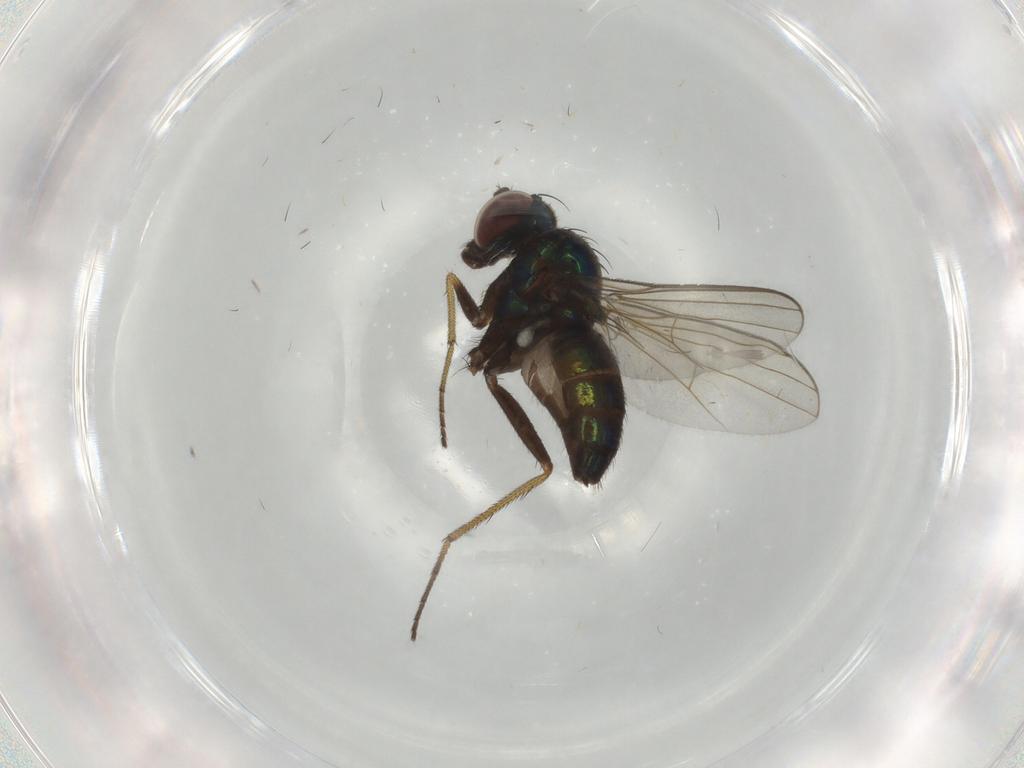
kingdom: Animalia
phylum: Arthropoda
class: Insecta
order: Diptera
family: Dolichopodidae
